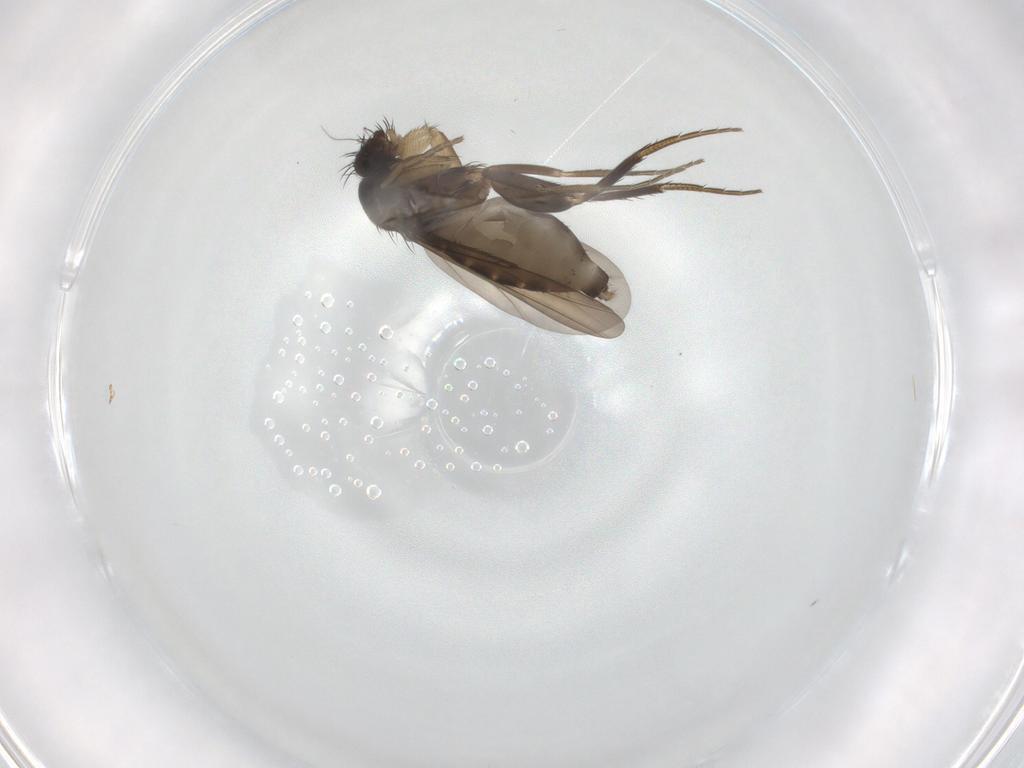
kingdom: Animalia
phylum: Arthropoda
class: Insecta
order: Diptera
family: Phoridae
